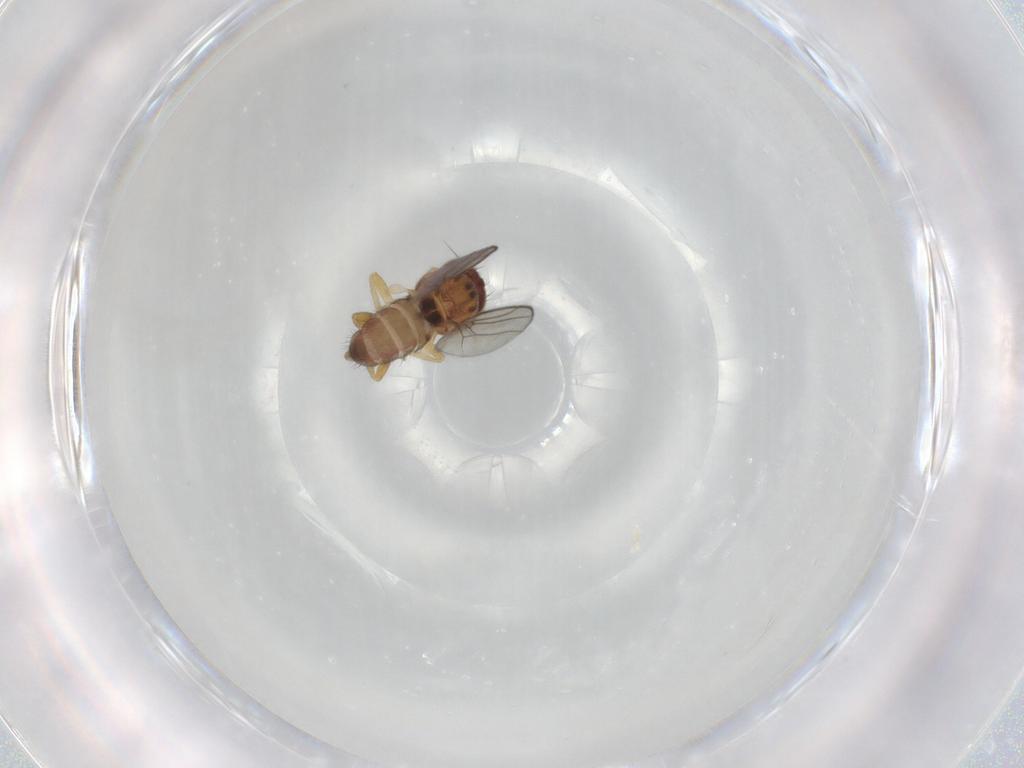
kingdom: Animalia
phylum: Arthropoda
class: Insecta
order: Diptera
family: Chloropidae
